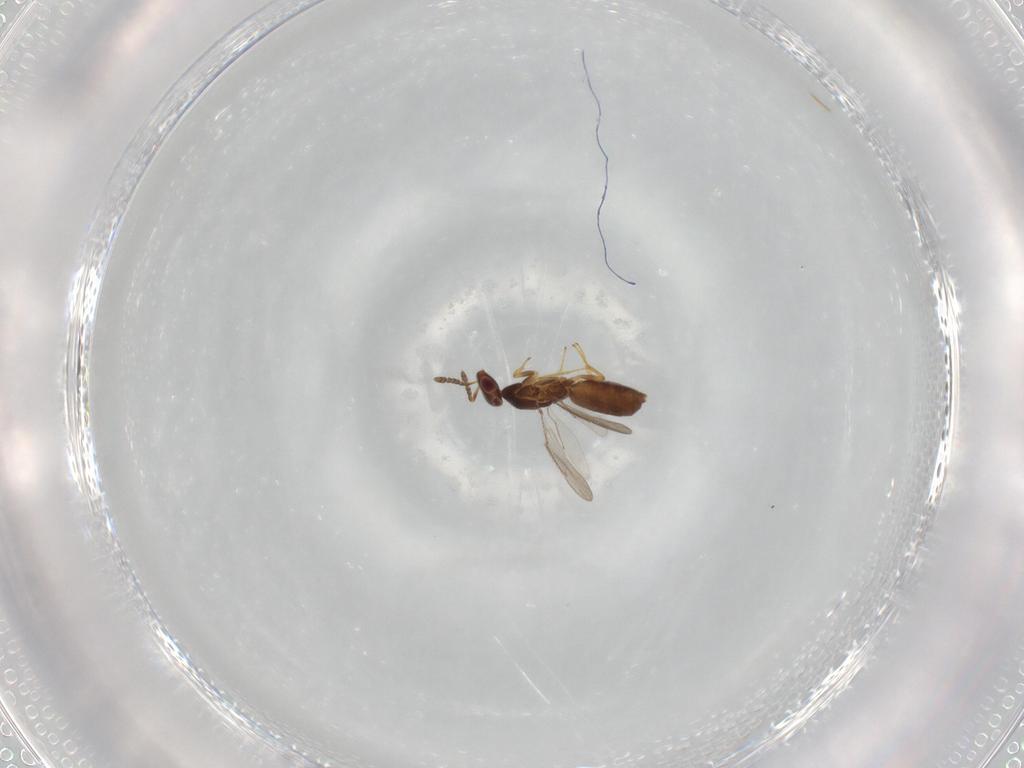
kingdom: Animalia
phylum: Arthropoda
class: Insecta
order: Hymenoptera
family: Eulophidae
